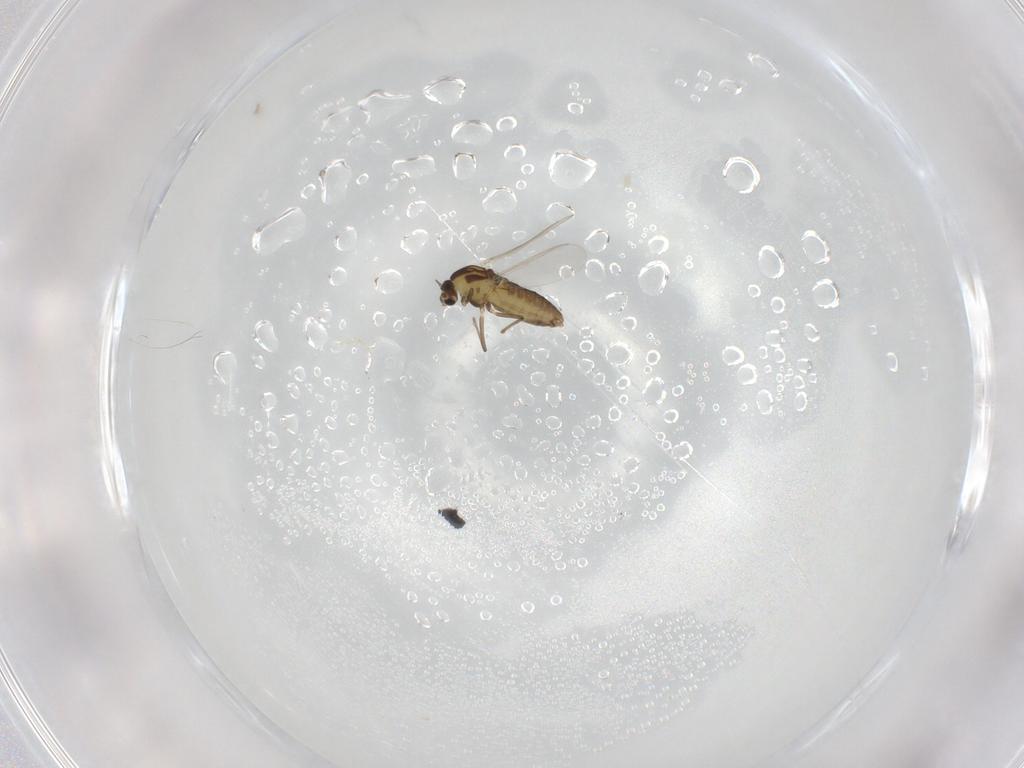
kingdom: Animalia
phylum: Arthropoda
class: Insecta
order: Diptera
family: Chironomidae
